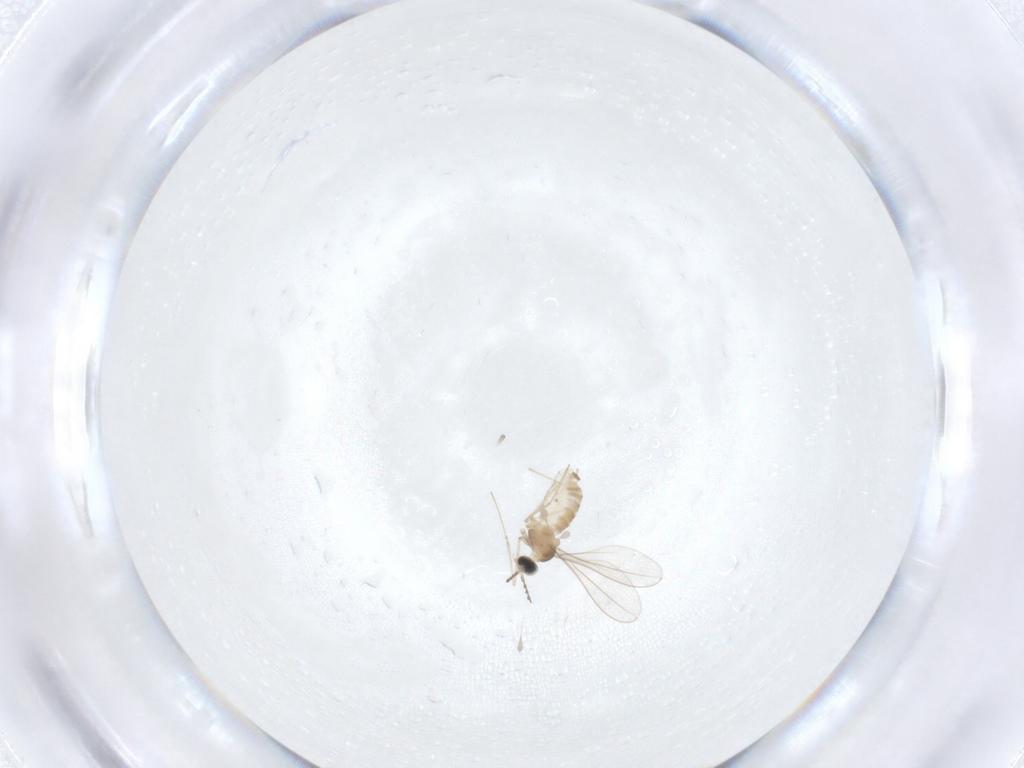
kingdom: Animalia
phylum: Arthropoda
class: Insecta
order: Diptera
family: Cecidomyiidae
